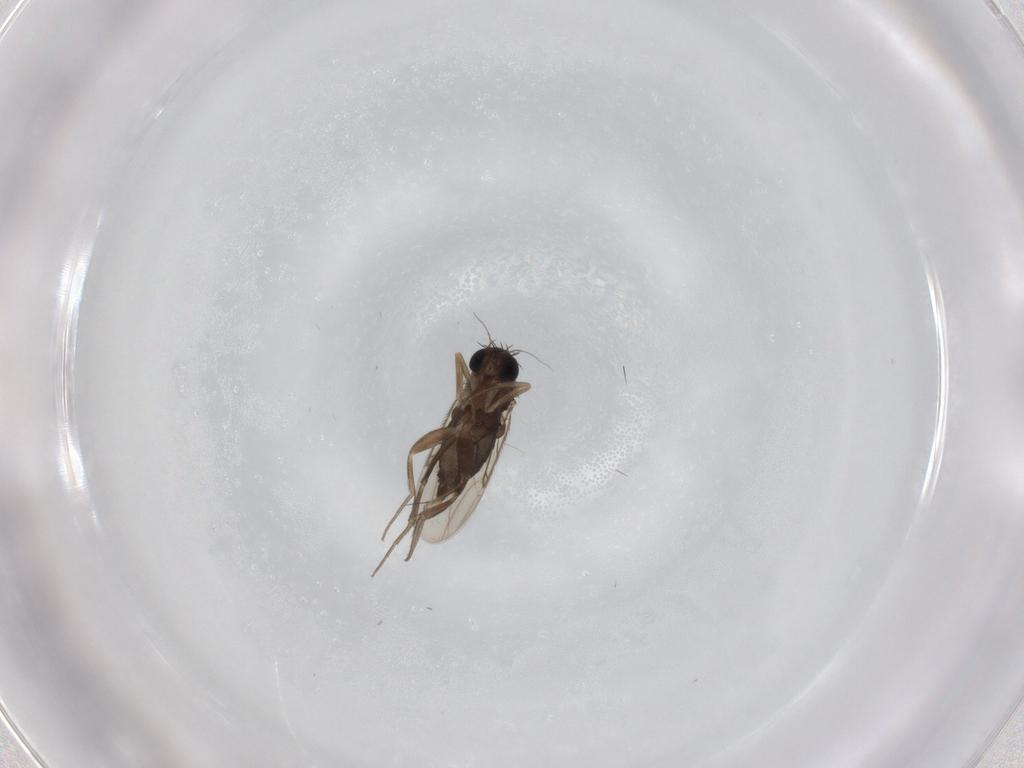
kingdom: Animalia
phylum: Arthropoda
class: Insecta
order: Diptera
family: Phoridae
